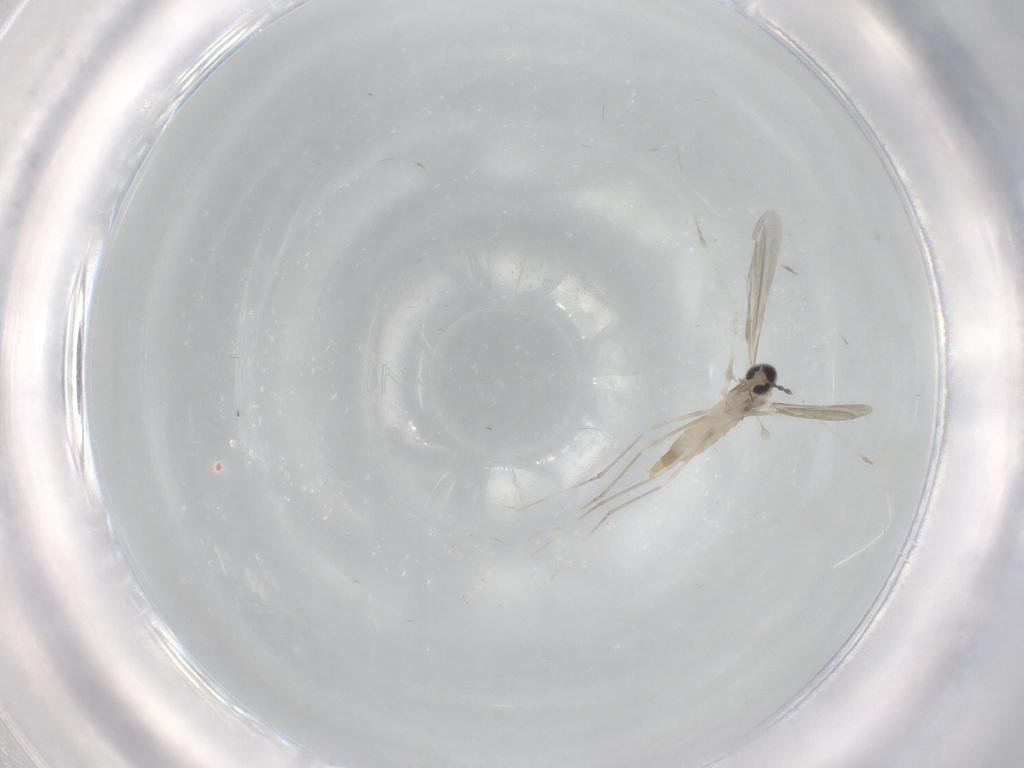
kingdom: Animalia
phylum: Arthropoda
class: Insecta
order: Diptera
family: Cecidomyiidae
